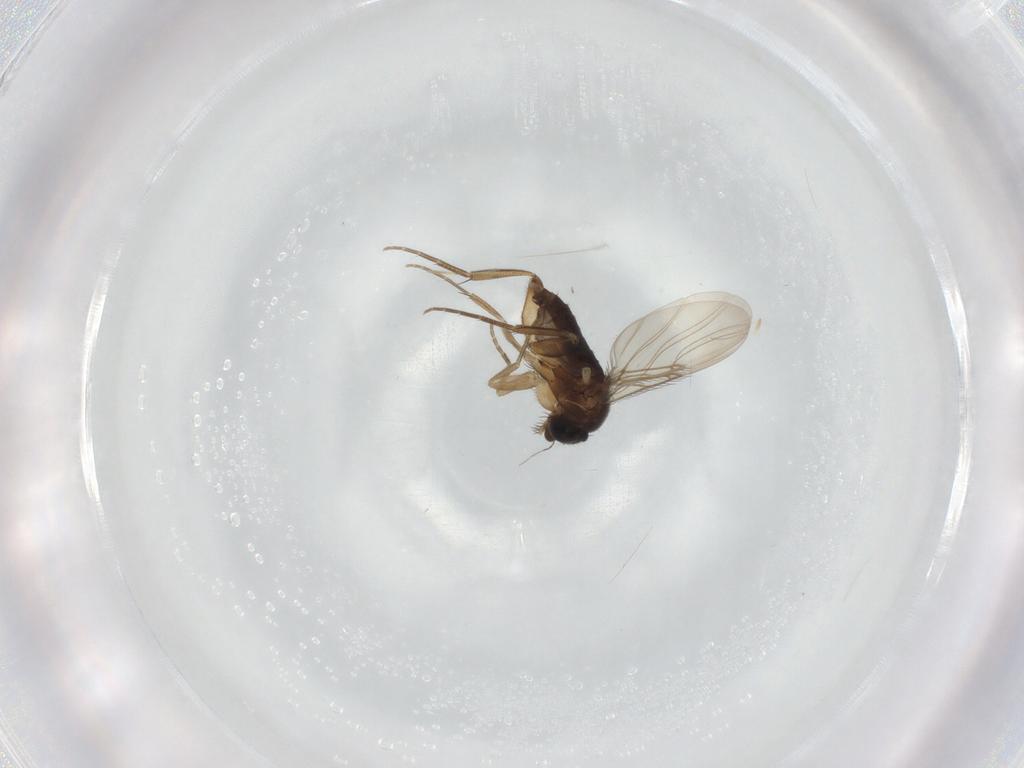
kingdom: Animalia
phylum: Arthropoda
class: Insecta
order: Diptera
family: Phoridae
